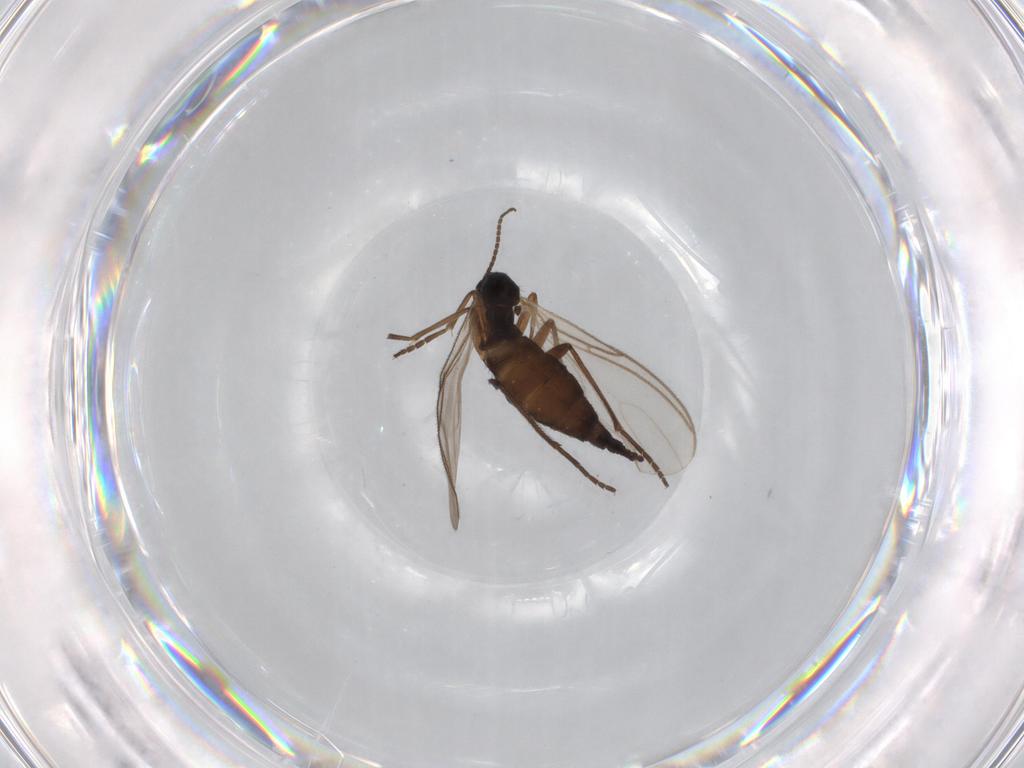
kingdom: Animalia
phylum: Arthropoda
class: Insecta
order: Diptera
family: Sciaridae
